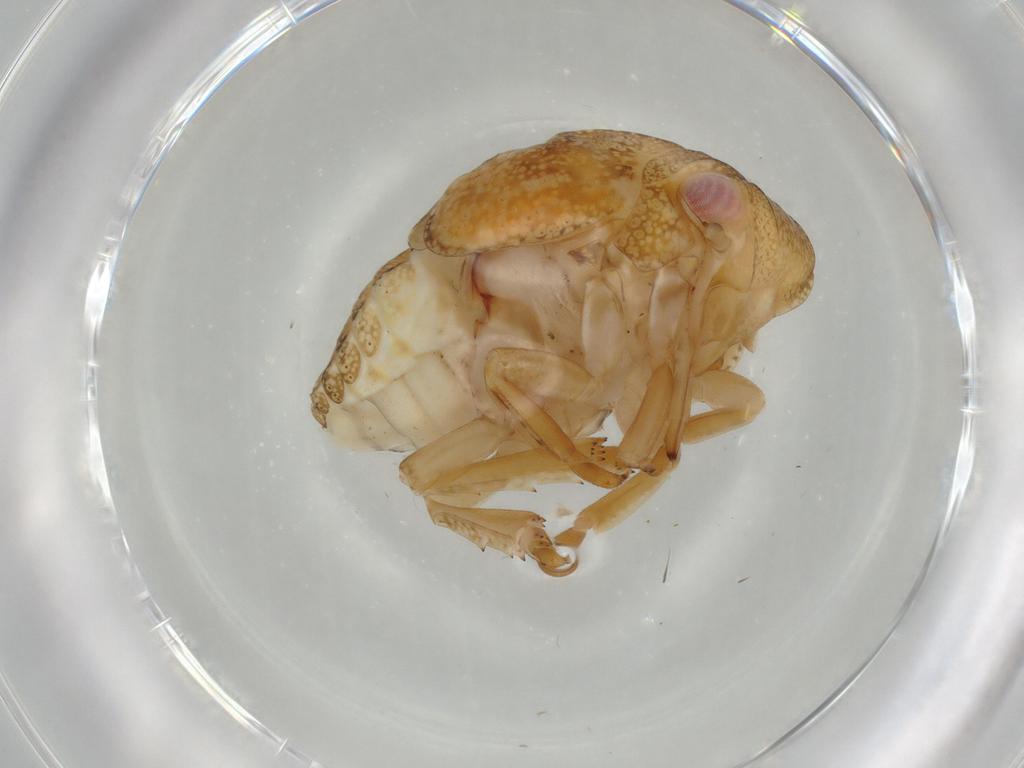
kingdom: Animalia
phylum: Arthropoda
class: Insecta
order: Hemiptera
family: Acanaloniidae
